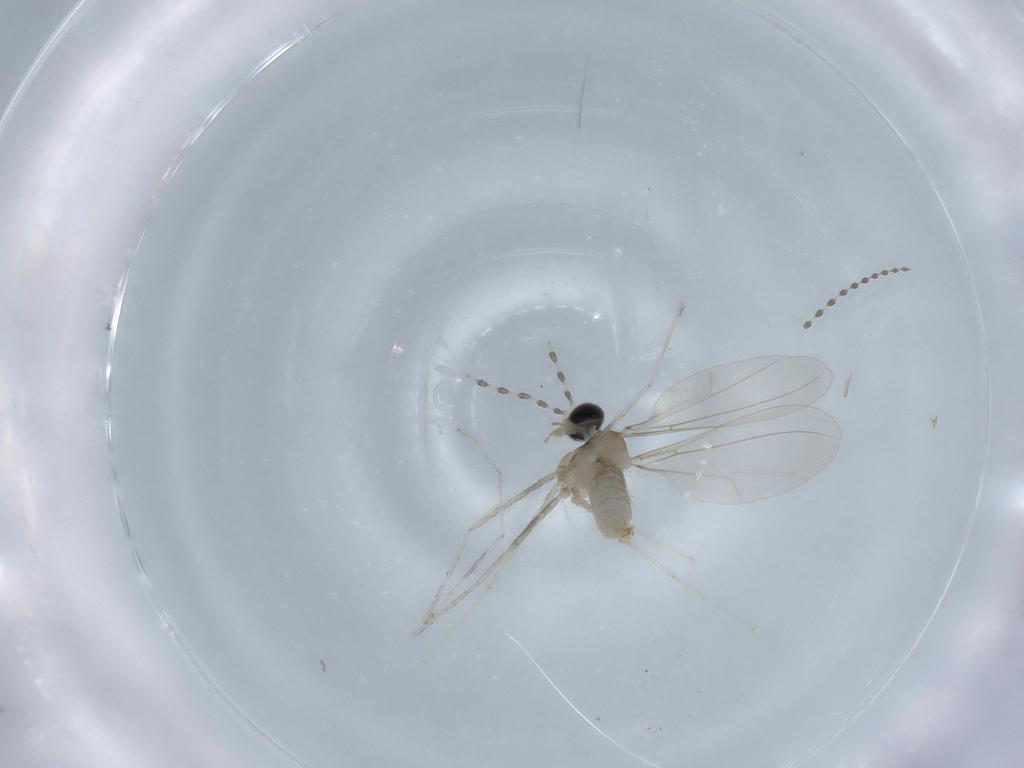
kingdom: Animalia
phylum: Arthropoda
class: Insecta
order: Diptera
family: Cecidomyiidae
